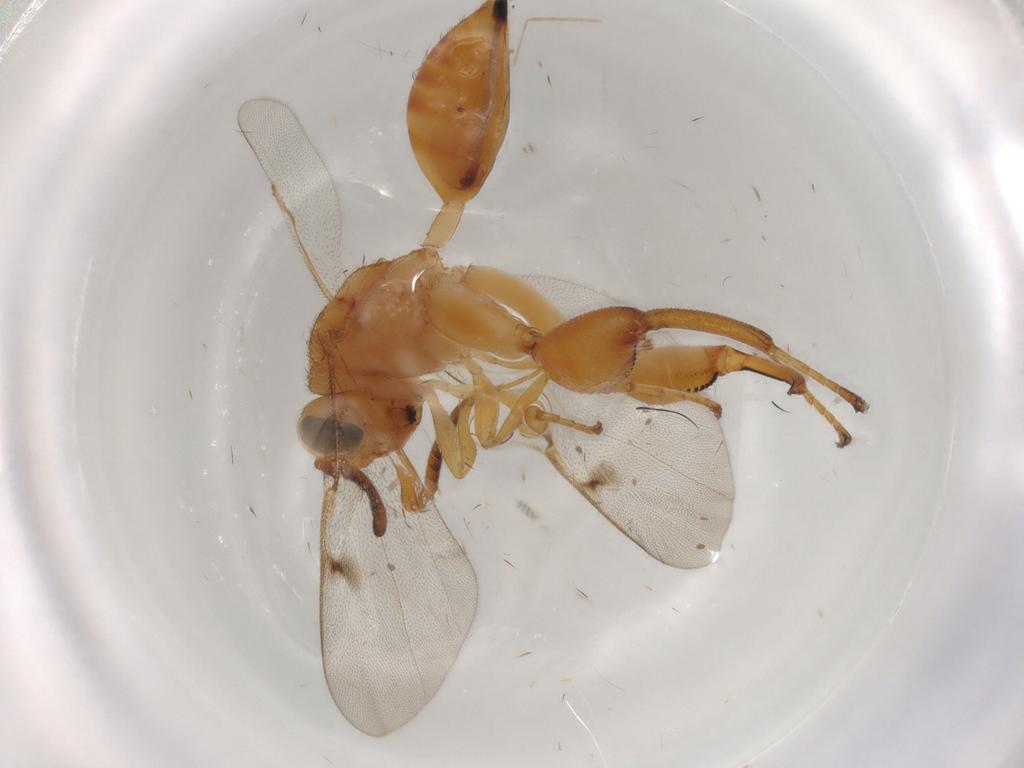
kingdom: Animalia
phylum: Arthropoda
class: Insecta
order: Hymenoptera
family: Chalcididae
